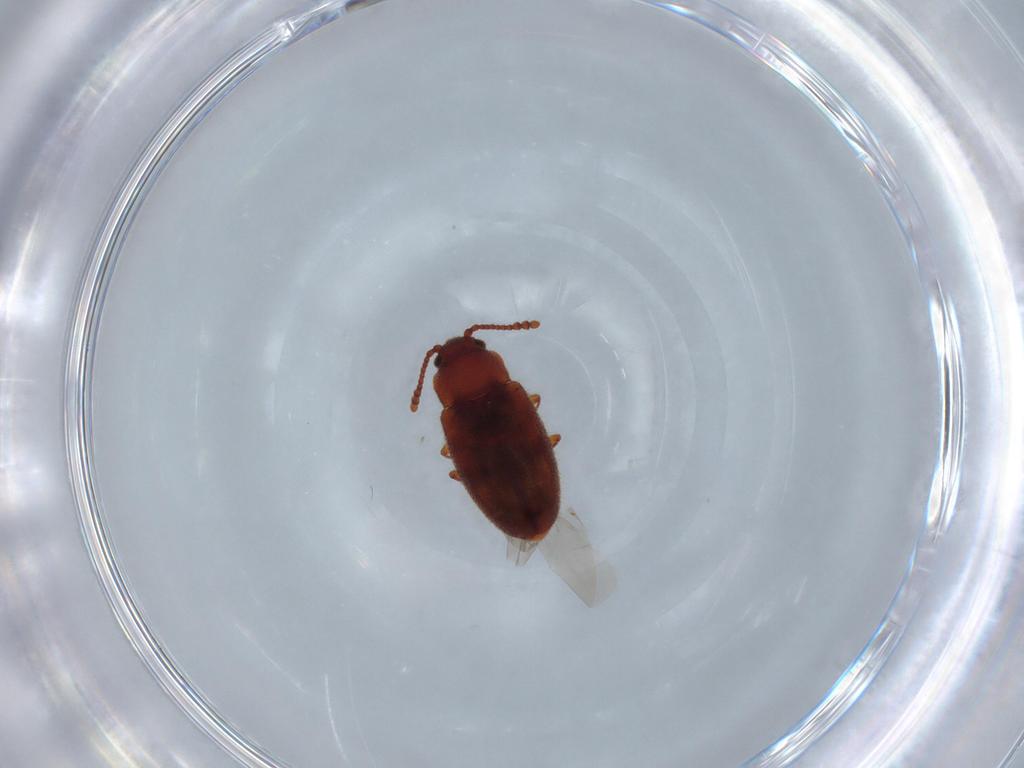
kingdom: Animalia
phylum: Arthropoda
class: Insecta
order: Coleoptera
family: Cryptophagidae
